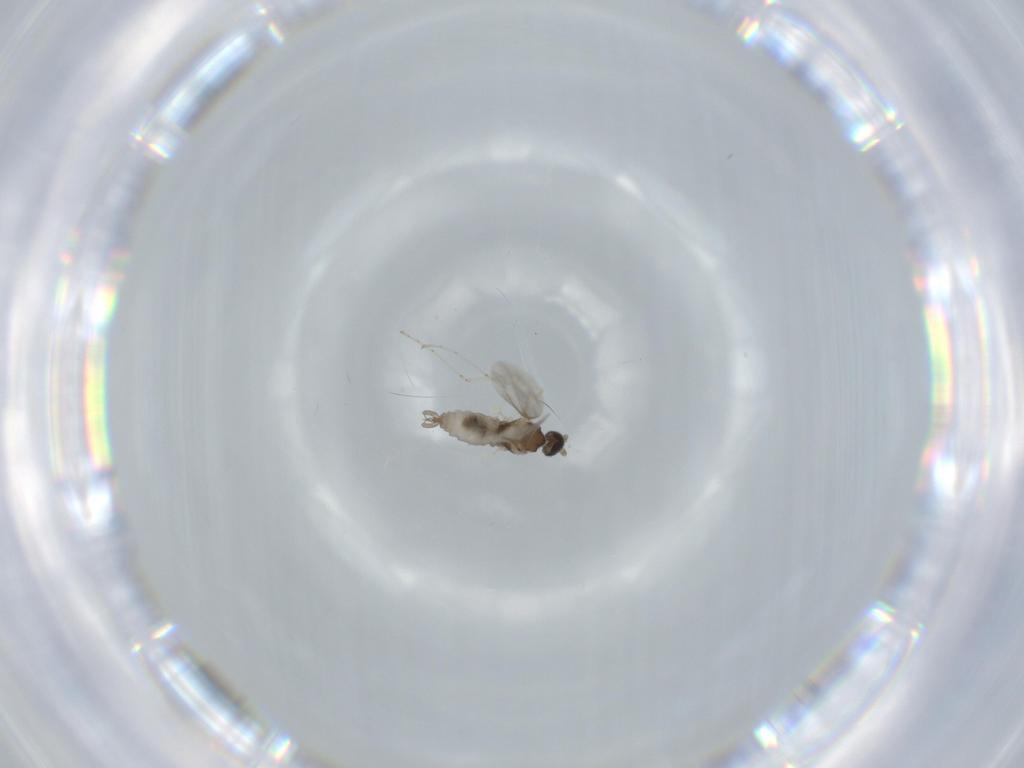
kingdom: Animalia
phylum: Arthropoda
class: Insecta
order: Diptera
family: Cecidomyiidae
